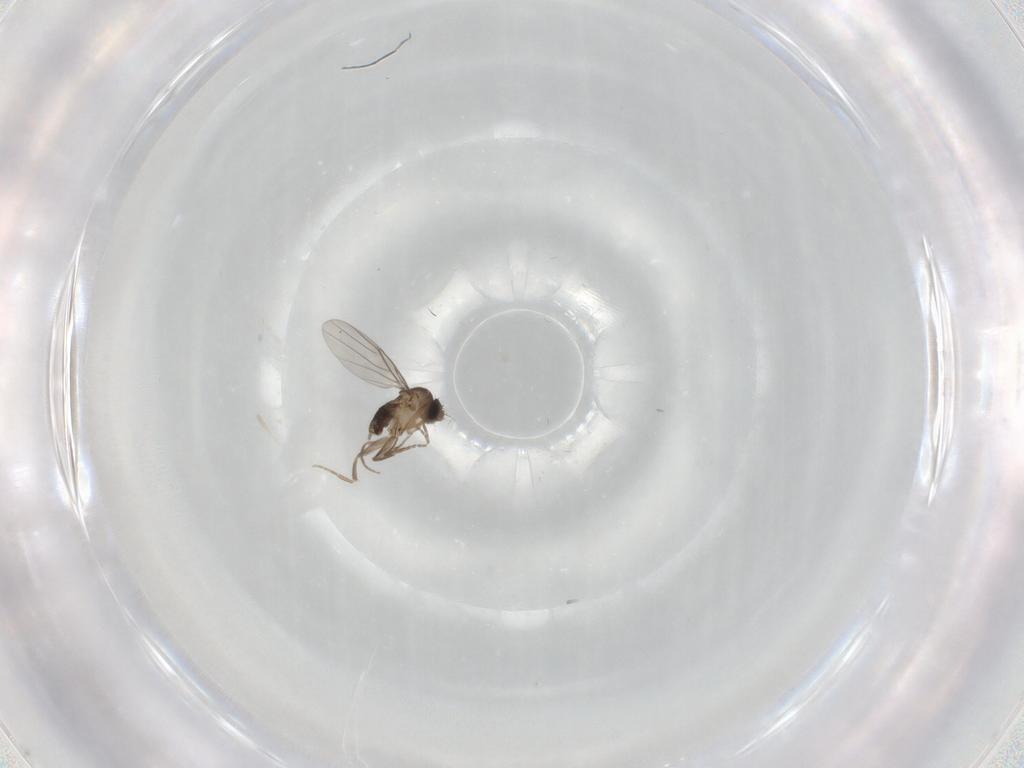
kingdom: Animalia
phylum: Arthropoda
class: Insecta
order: Diptera
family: Phoridae
